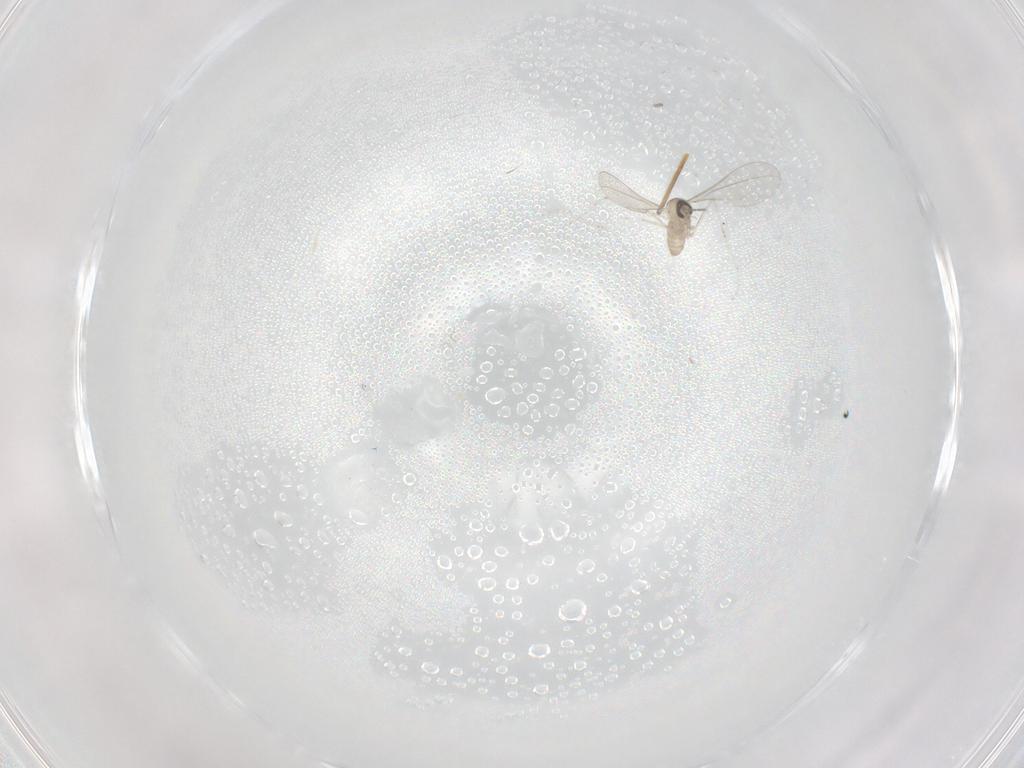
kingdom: Animalia
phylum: Arthropoda
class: Insecta
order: Diptera
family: Cecidomyiidae
